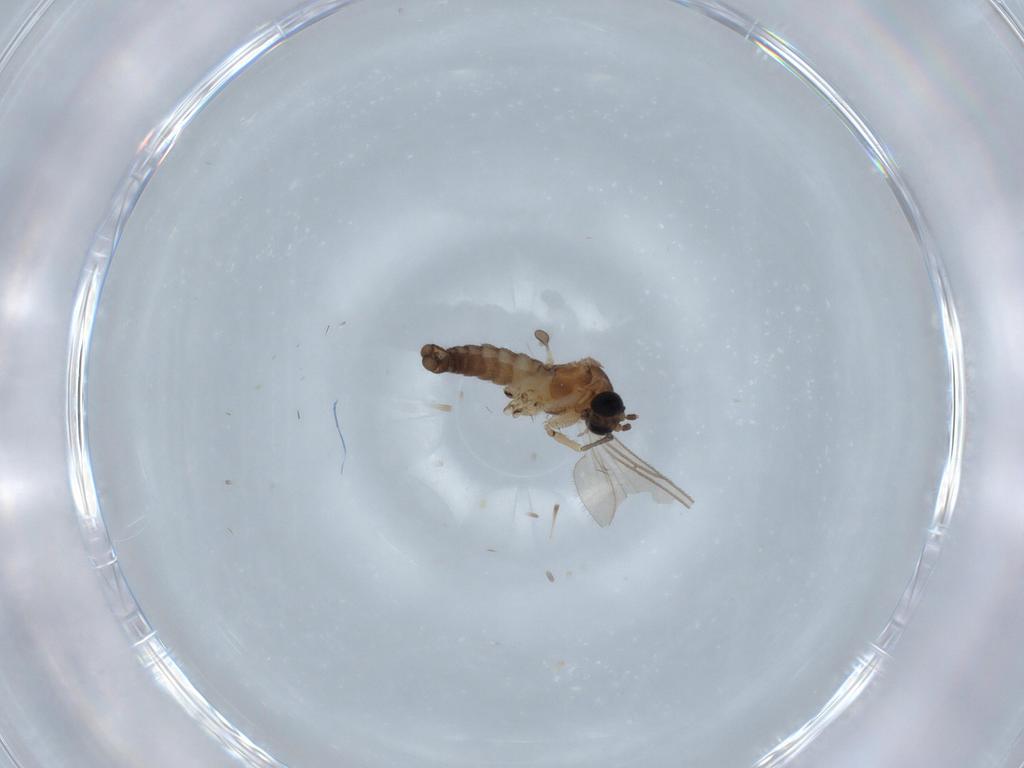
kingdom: Animalia
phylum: Arthropoda
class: Insecta
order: Diptera
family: Sciaridae
